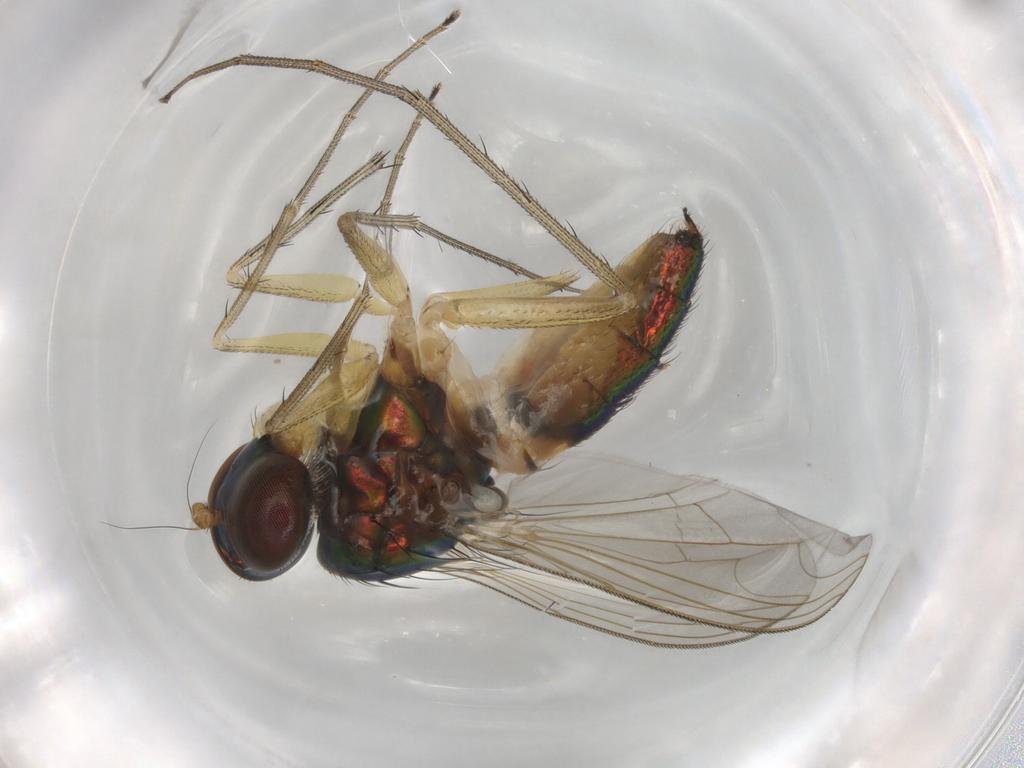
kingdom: Animalia
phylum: Arthropoda
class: Insecta
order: Diptera
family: Dolichopodidae
